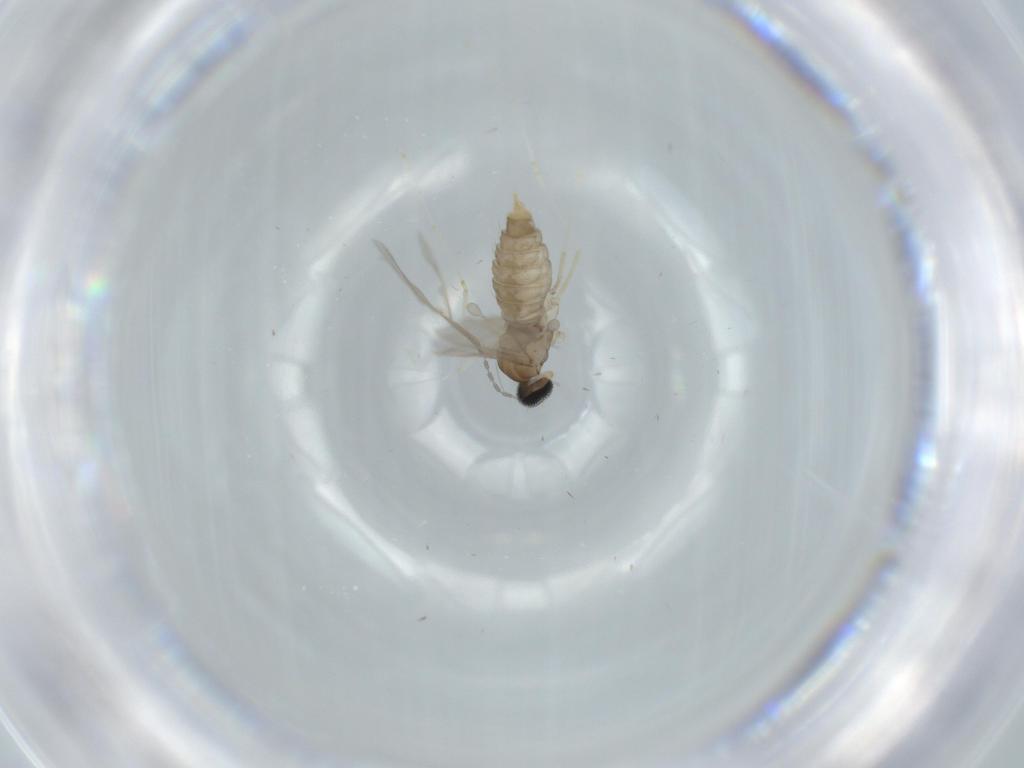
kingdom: Animalia
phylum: Arthropoda
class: Insecta
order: Diptera
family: Cecidomyiidae
